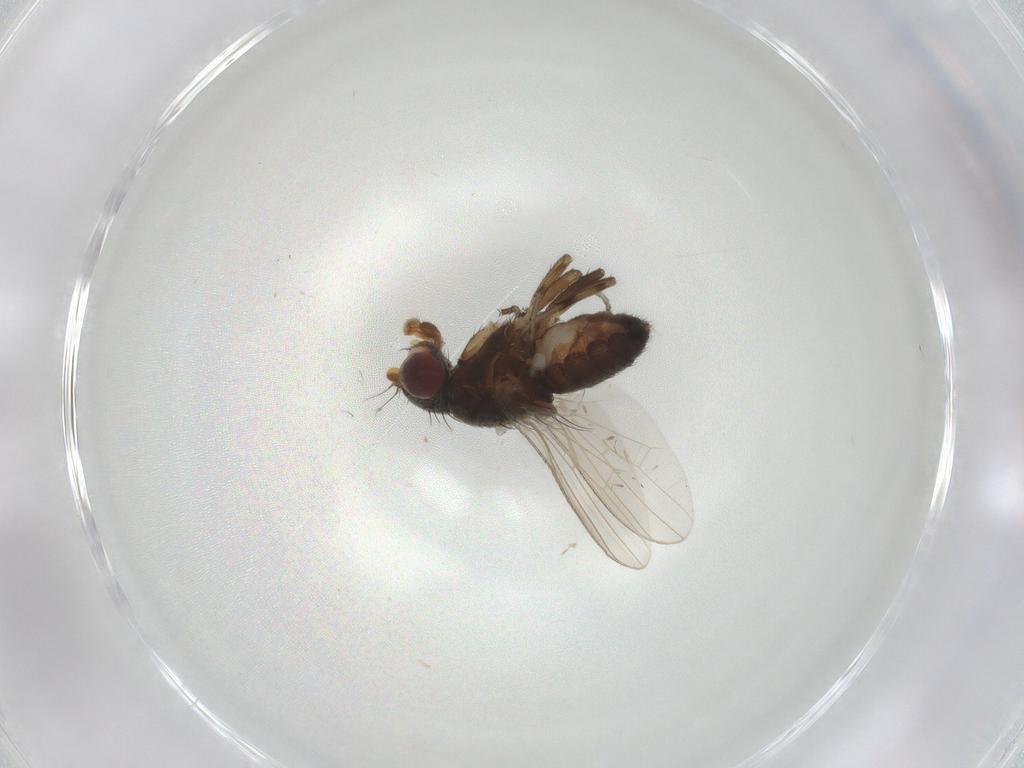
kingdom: Animalia
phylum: Arthropoda
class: Insecta
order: Diptera
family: Heleomyzidae
